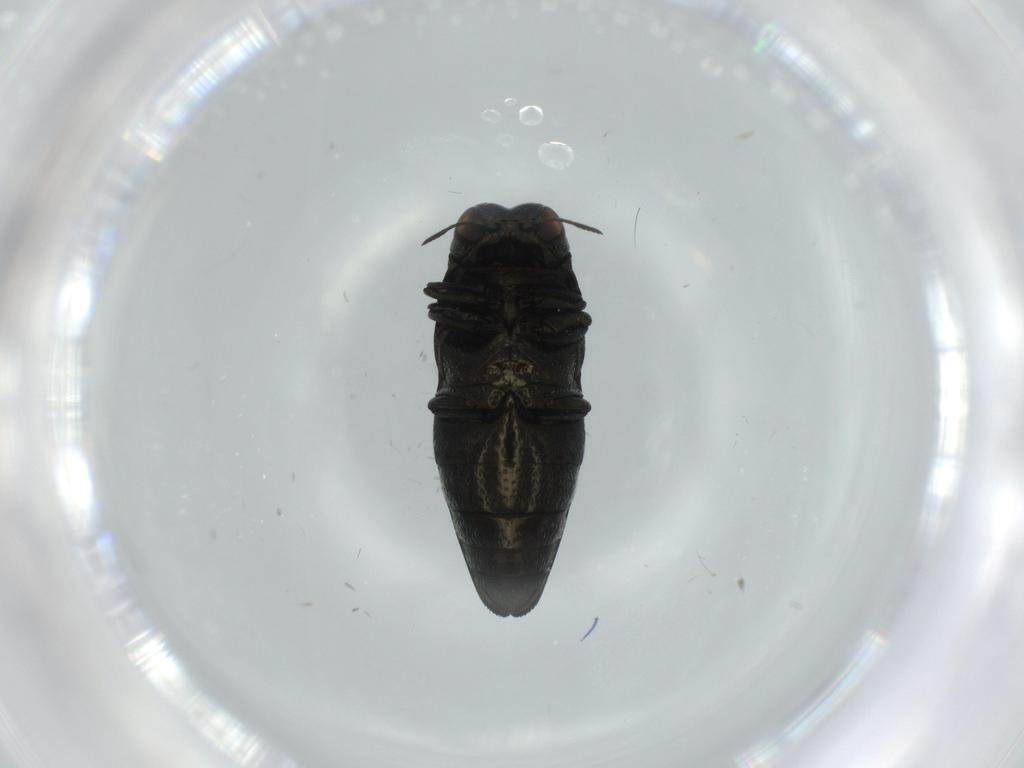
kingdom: Animalia
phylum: Arthropoda
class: Insecta
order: Coleoptera
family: Buprestidae
